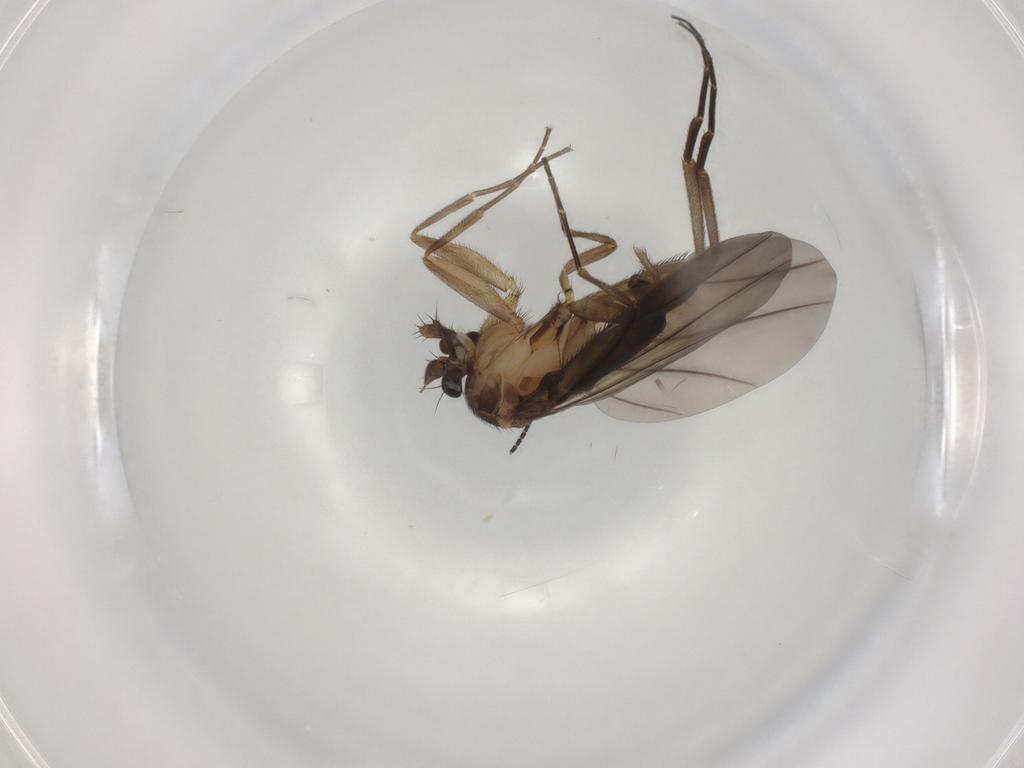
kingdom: Animalia
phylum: Arthropoda
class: Insecta
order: Diptera
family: Phoridae
